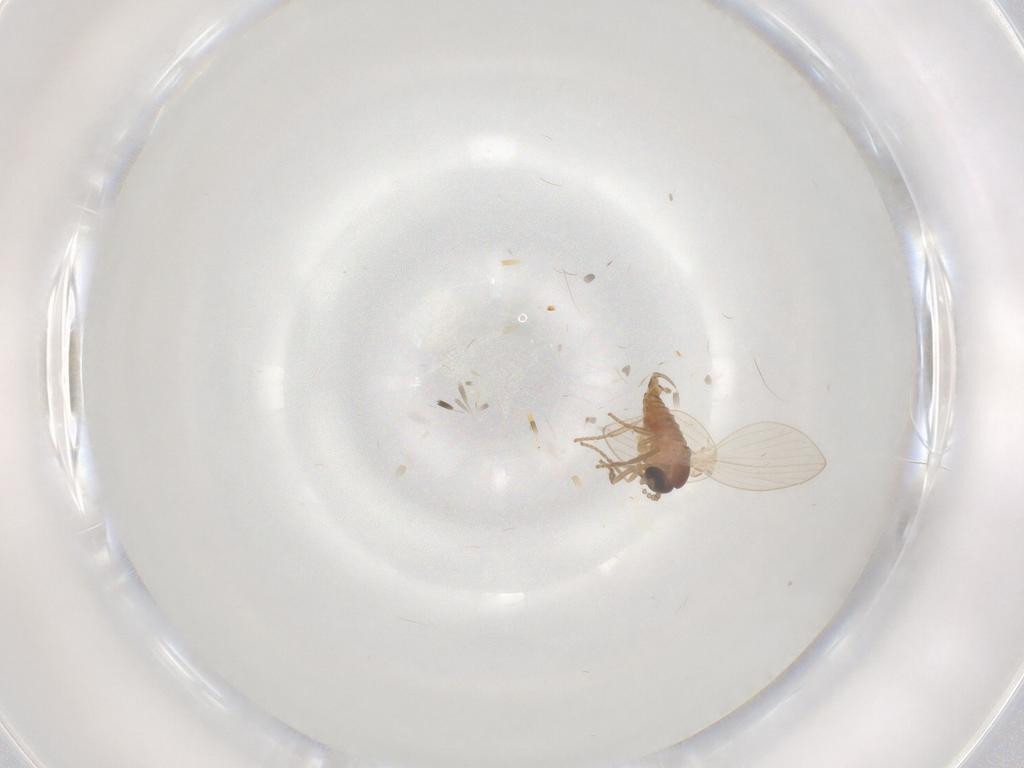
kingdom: Animalia
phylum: Arthropoda
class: Insecta
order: Diptera
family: Psychodidae
